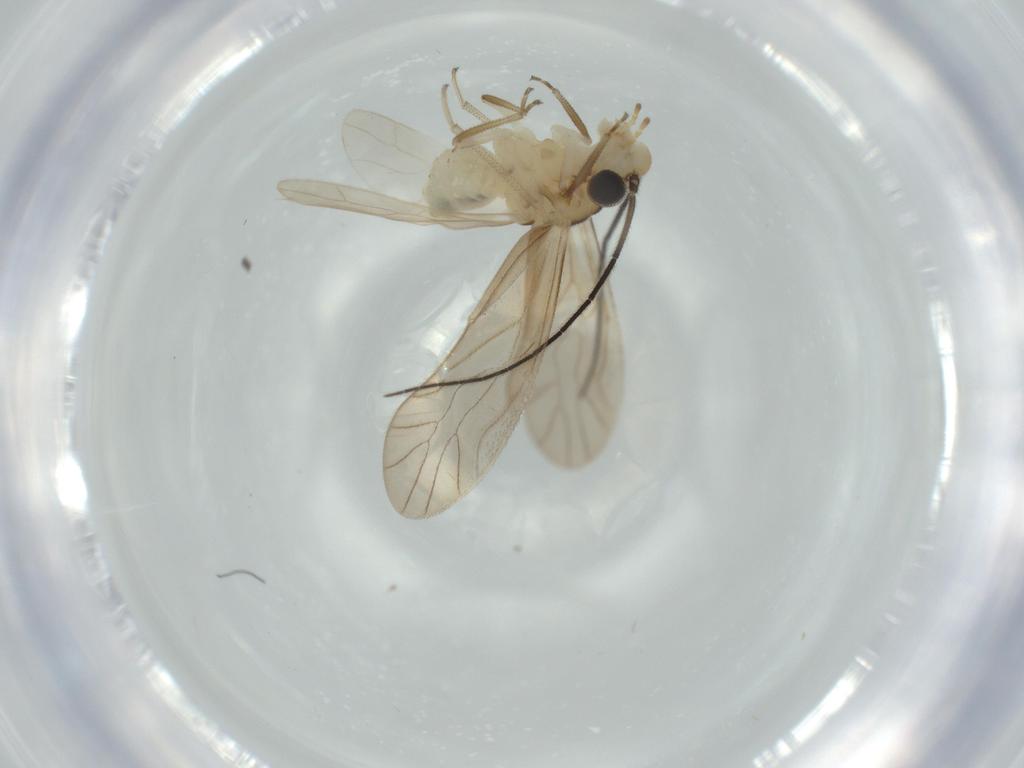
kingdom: Animalia
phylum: Arthropoda
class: Insecta
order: Psocodea
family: Caeciliusidae
